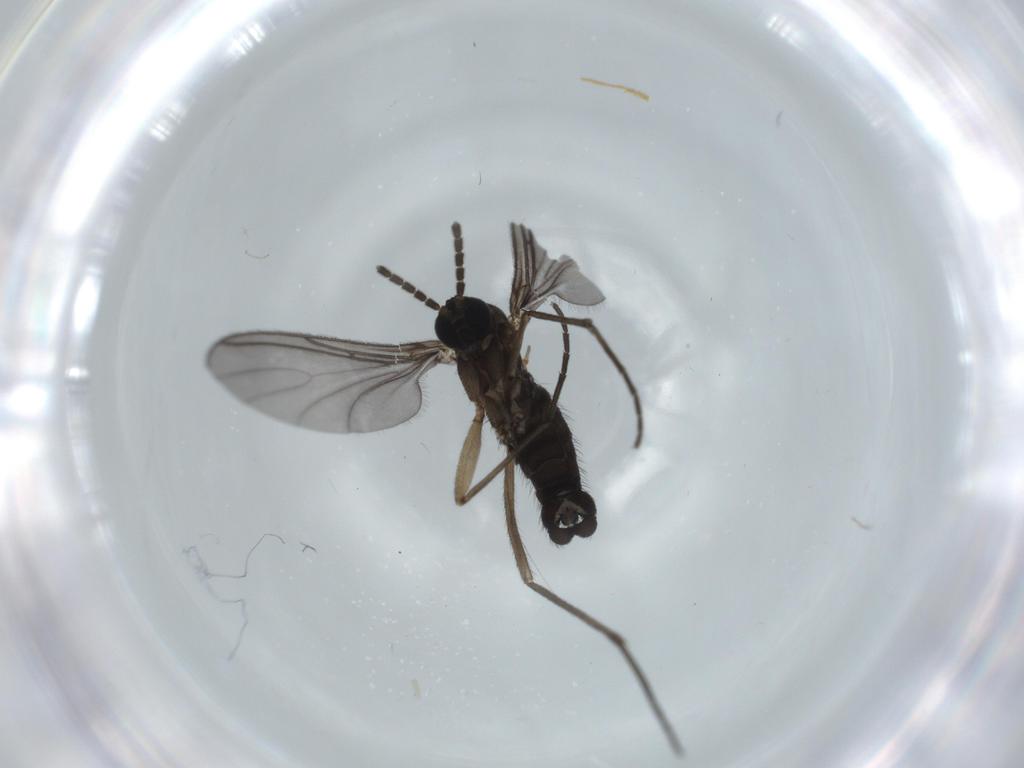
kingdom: Animalia
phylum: Arthropoda
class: Insecta
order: Diptera
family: Sciaridae
